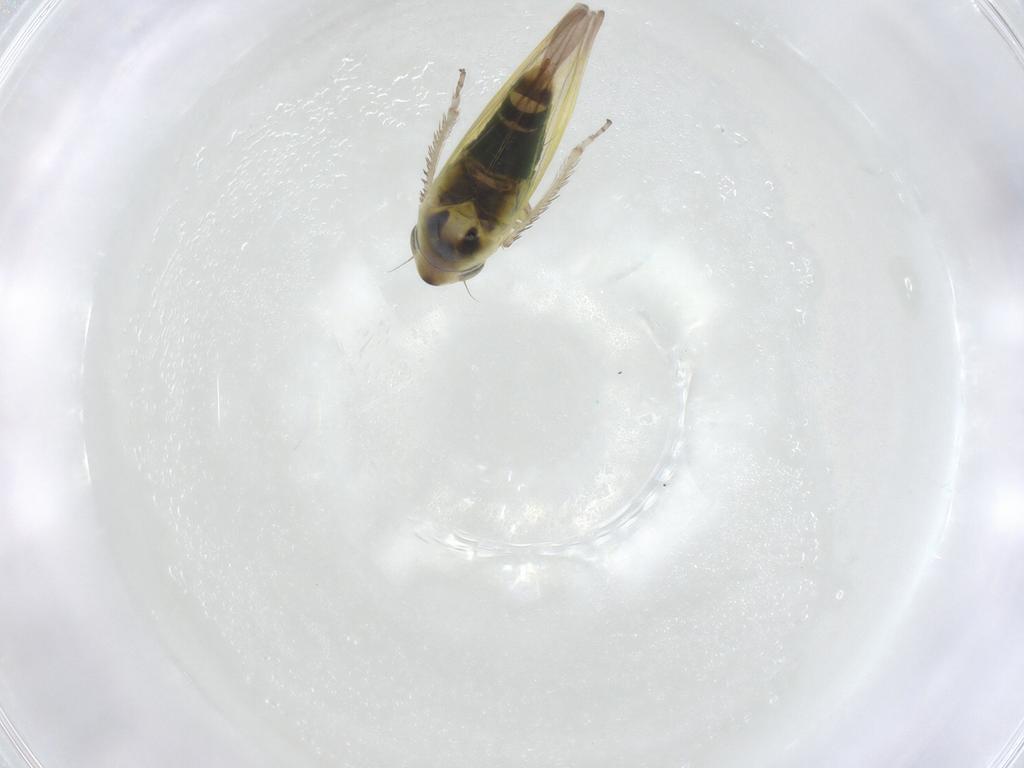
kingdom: Animalia
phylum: Arthropoda
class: Insecta
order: Hemiptera
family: Cicadellidae
